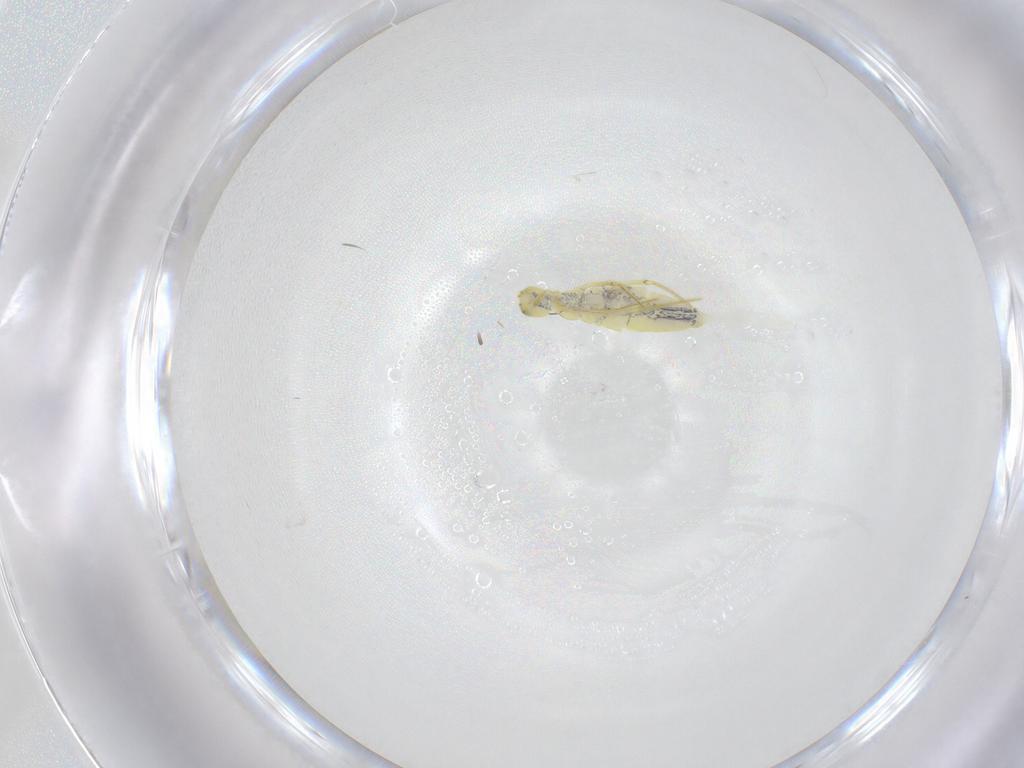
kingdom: Animalia
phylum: Arthropoda
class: Collembola
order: Entomobryomorpha
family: Entomobryidae
